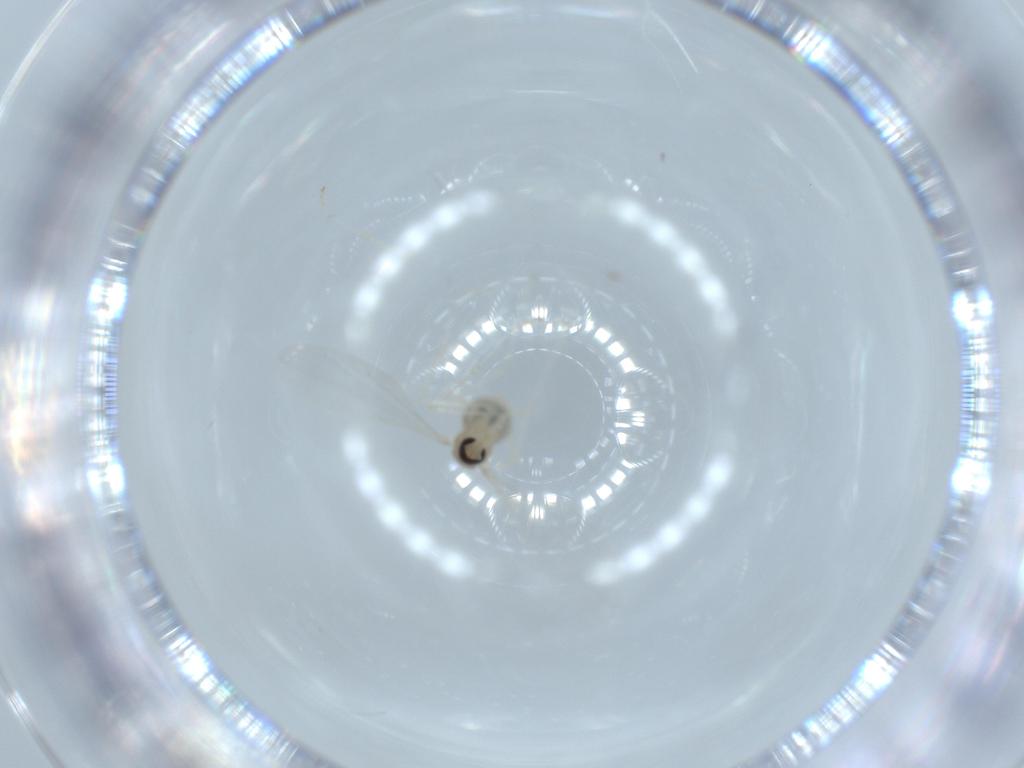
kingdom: Animalia
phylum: Arthropoda
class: Insecta
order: Diptera
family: Cecidomyiidae
